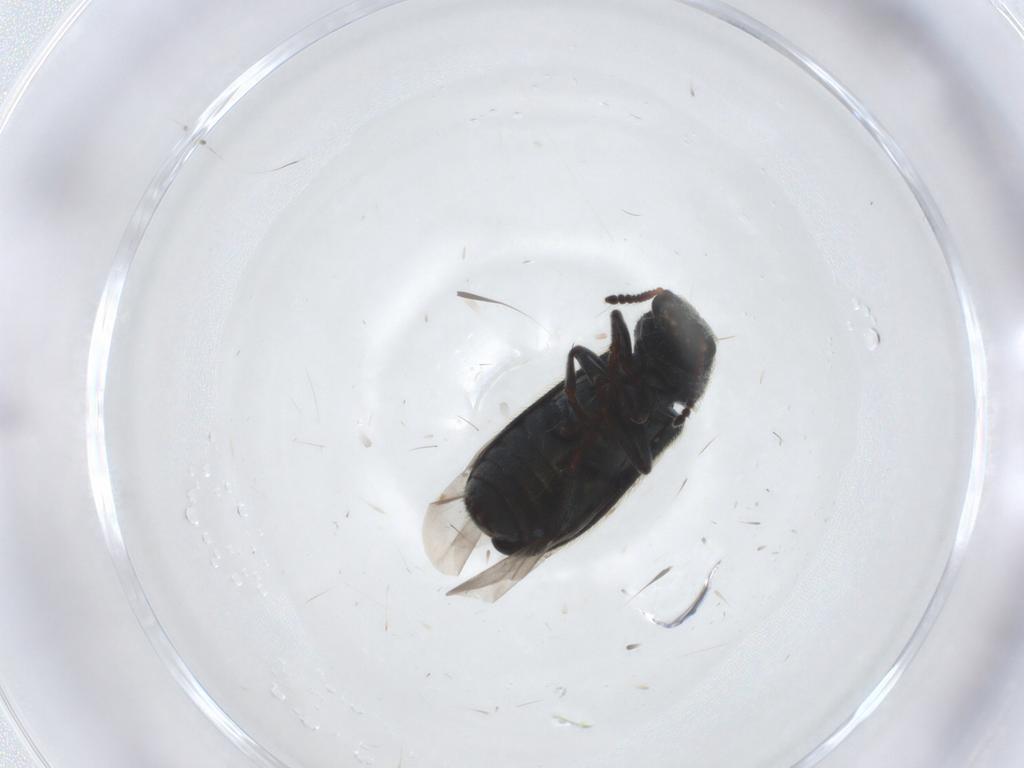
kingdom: Animalia
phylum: Arthropoda
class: Insecta
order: Coleoptera
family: Melyridae
